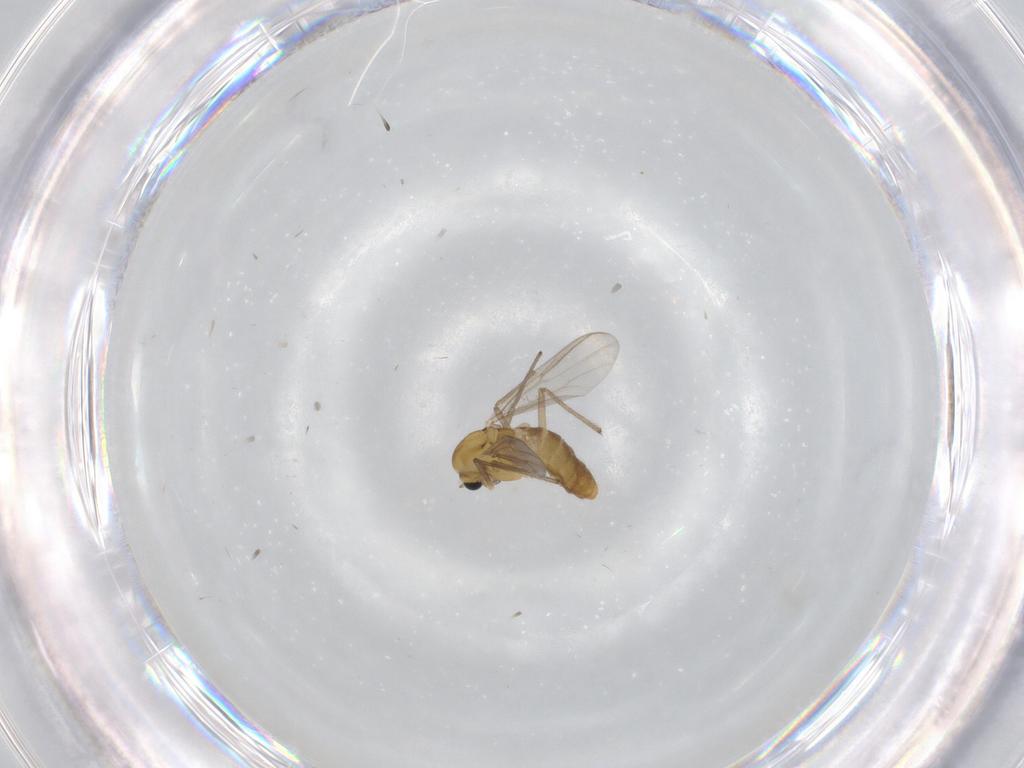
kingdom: Animalia
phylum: Arthropoda
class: Insecta
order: Diptera
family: Chironomidae
